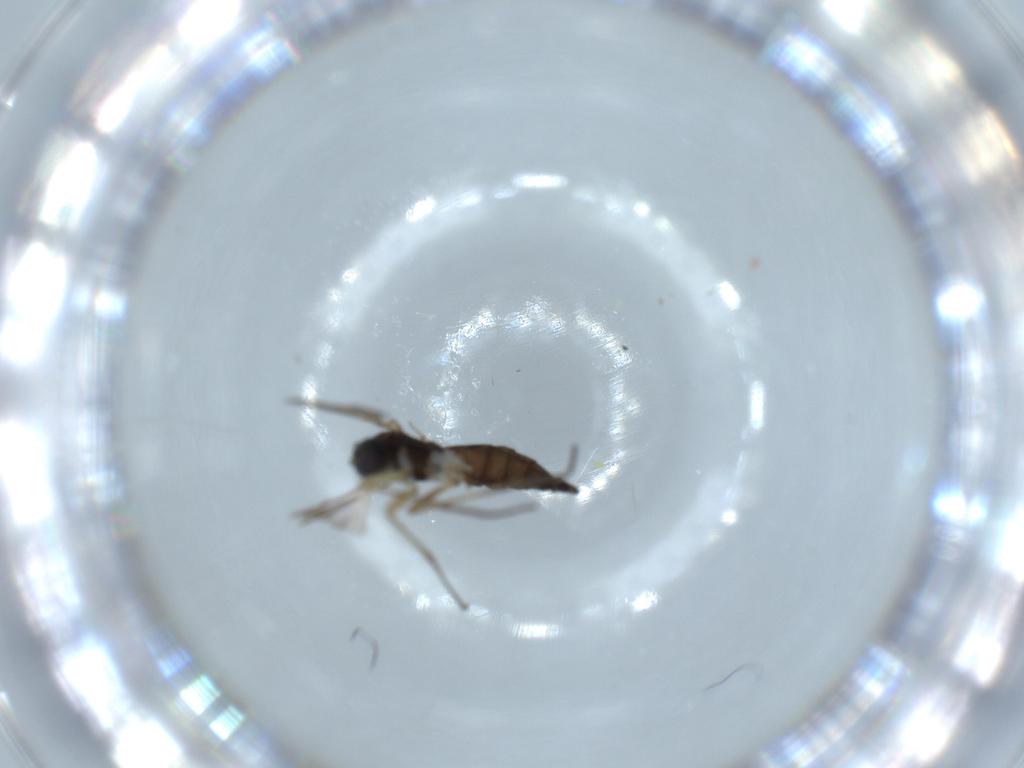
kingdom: Animalia
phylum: Arthropoda
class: Insecta
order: Diptera
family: Sciaridae
